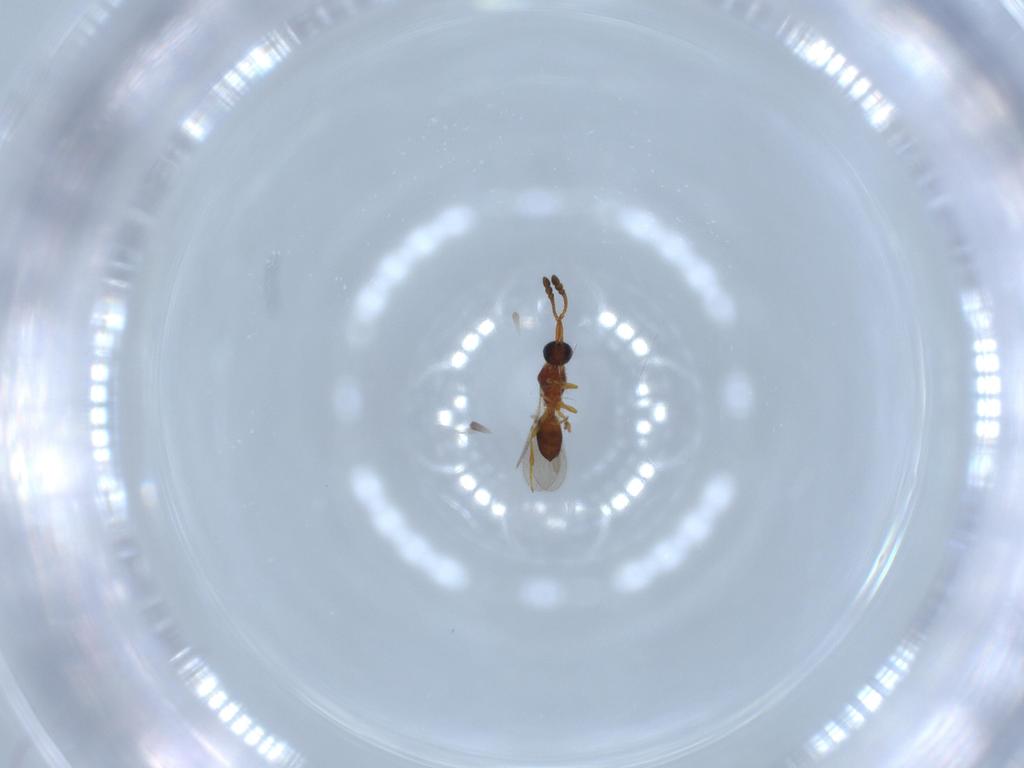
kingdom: Animalia
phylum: Arthropoda
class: Insecta
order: Hymenoptera
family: Diapriidae
